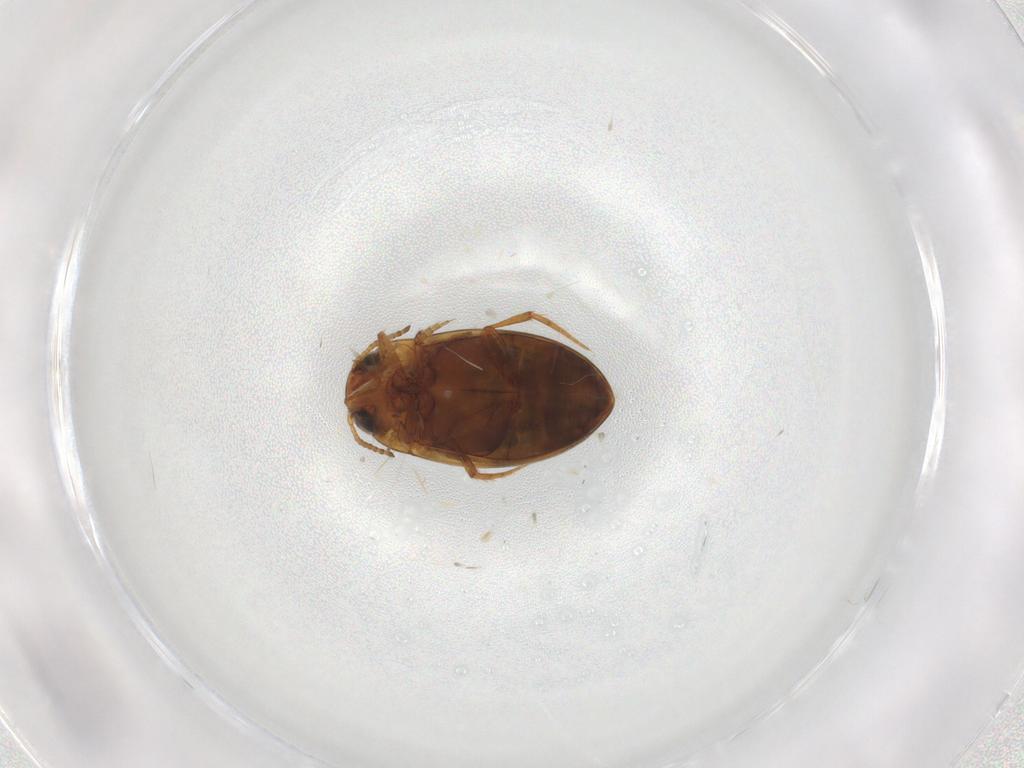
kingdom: Animalia
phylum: Arthropoda
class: Insecta
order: Coleoptera
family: Dytiscidae
